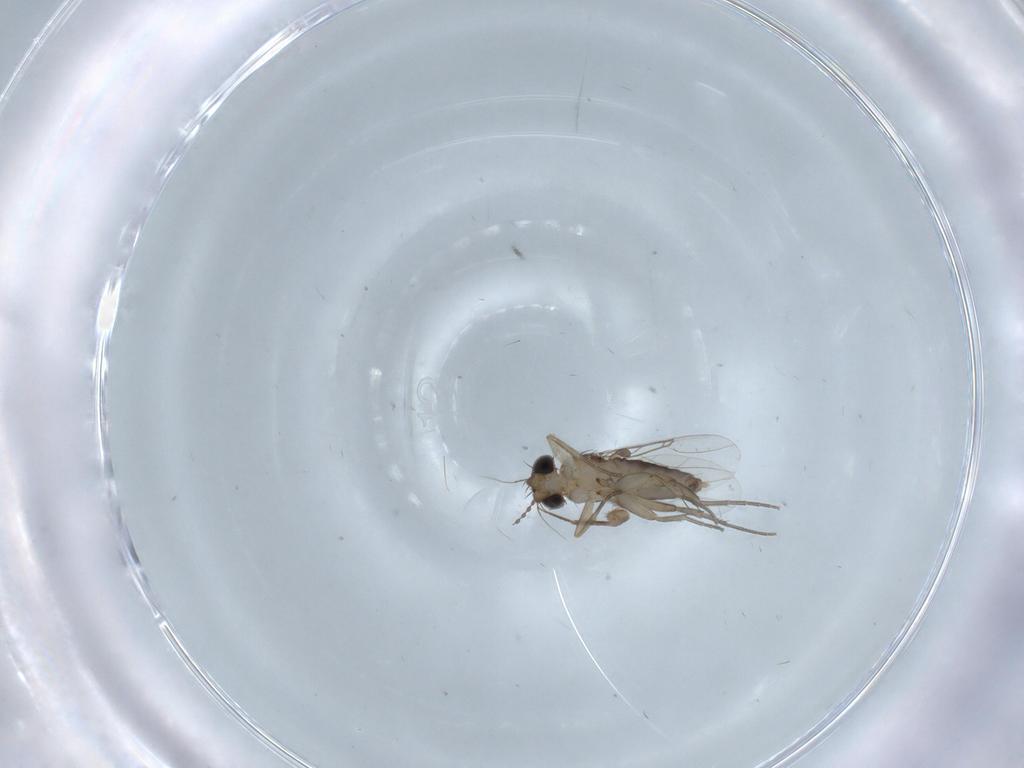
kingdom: Animalia
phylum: Arthropoda
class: Insecta
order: Diptera
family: Phoridae
